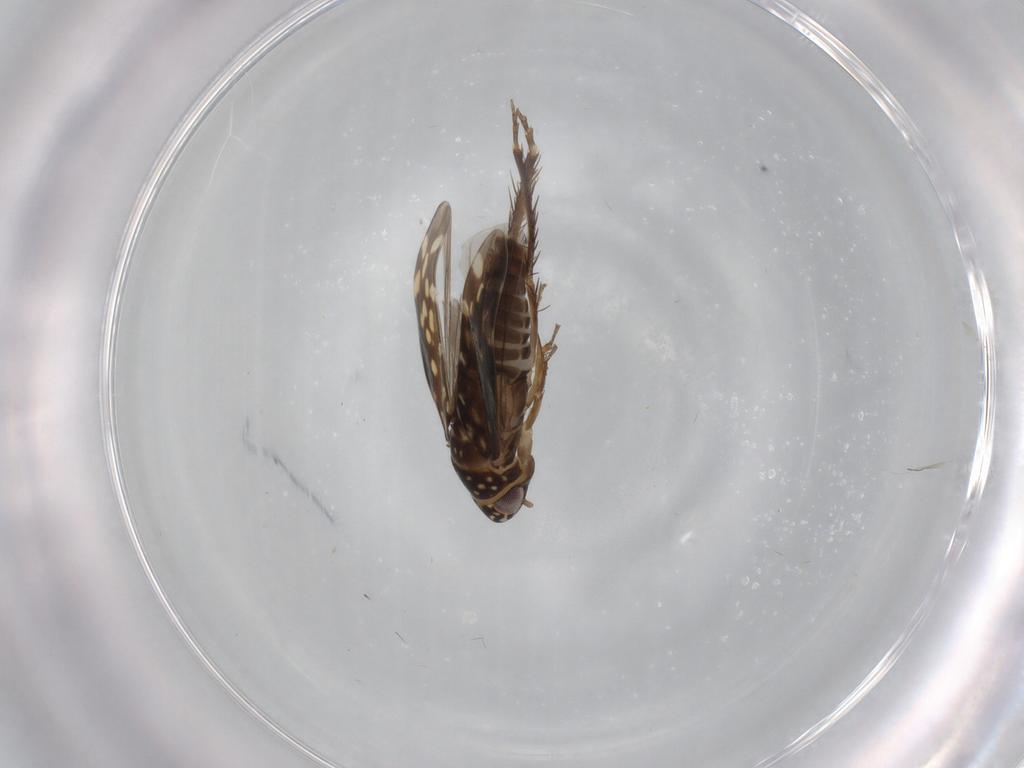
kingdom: Animalia
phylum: Arthropoda
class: Insecta
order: Hemiptera
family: Cicadellidae
